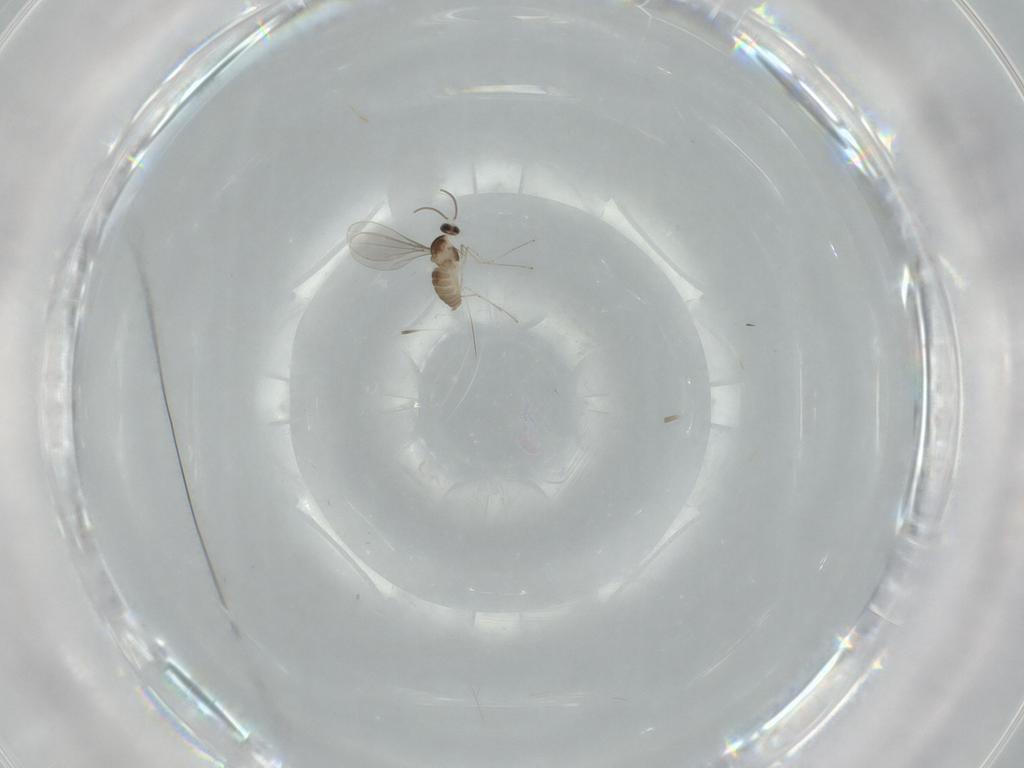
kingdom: Animalia
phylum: Arthropoda
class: Insecta
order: Diptera
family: Cecidomyiidae
